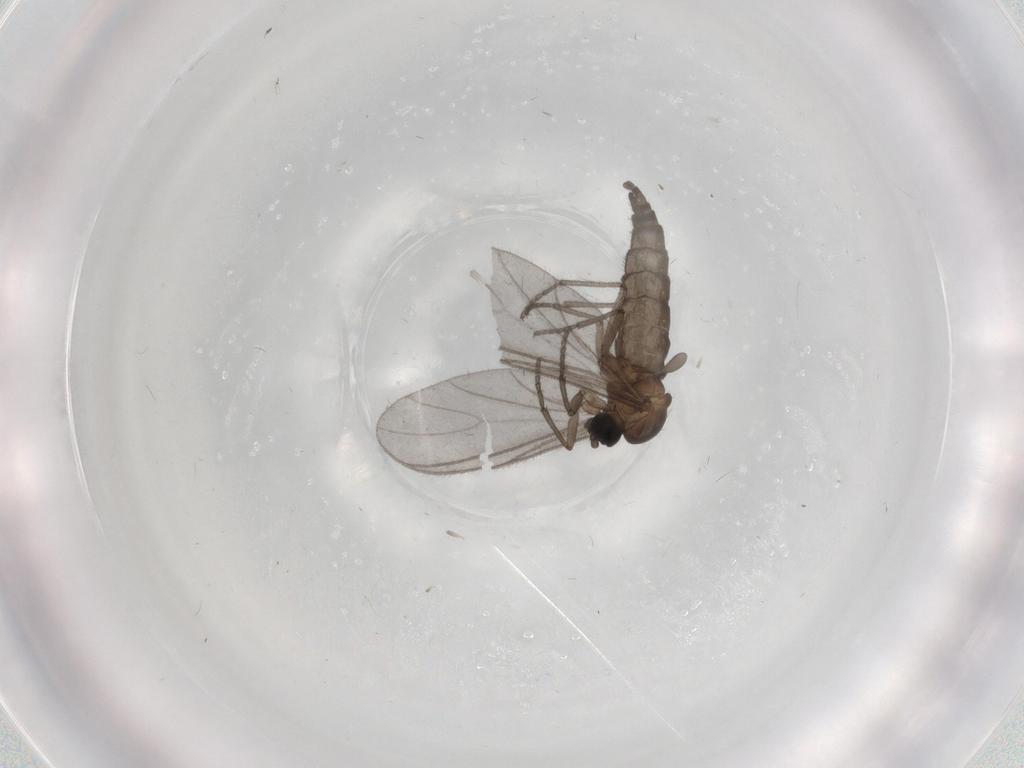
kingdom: Animalia
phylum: Arthropoda
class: Insecta
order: Diptera
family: Sciaridae
